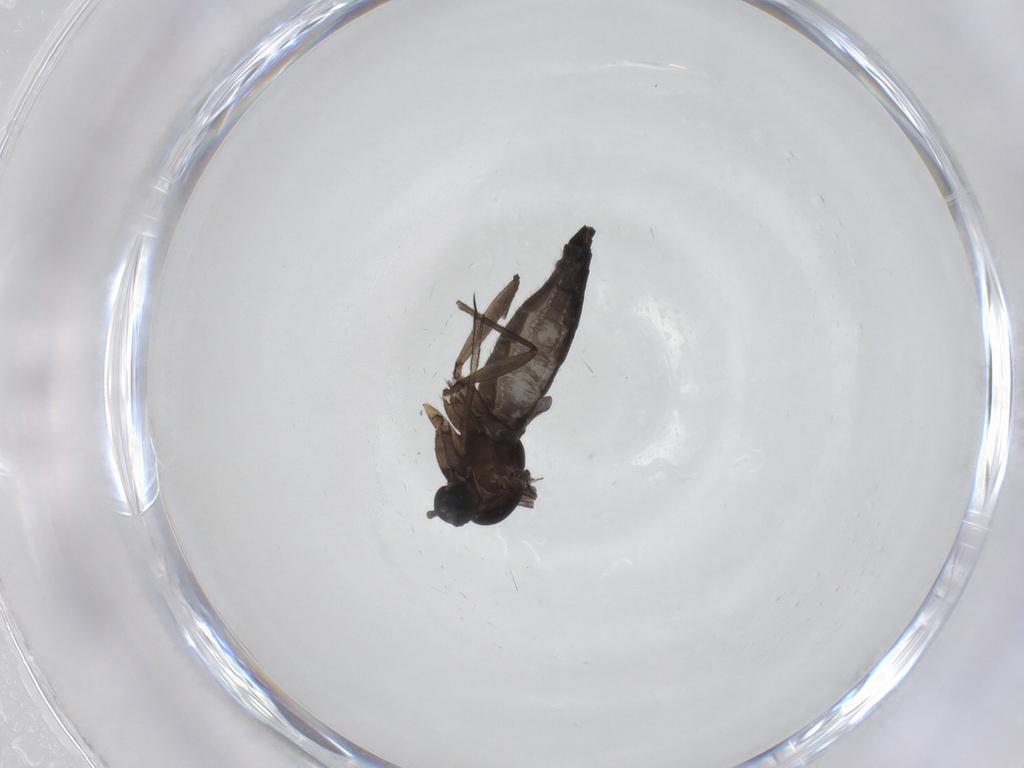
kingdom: Animalia
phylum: Arthropoda
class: Insecta
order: Diptera
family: Sciaridae
